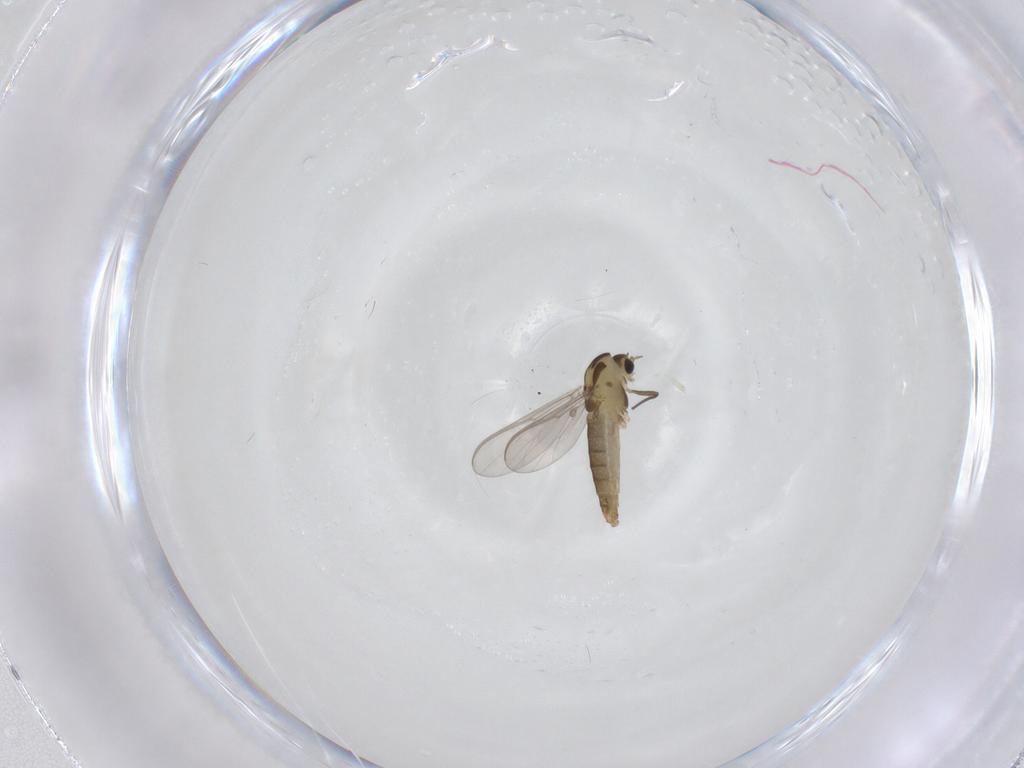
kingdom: Animalia
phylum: Arthropoda
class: Insecta
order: Diptera
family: Chironomidae
